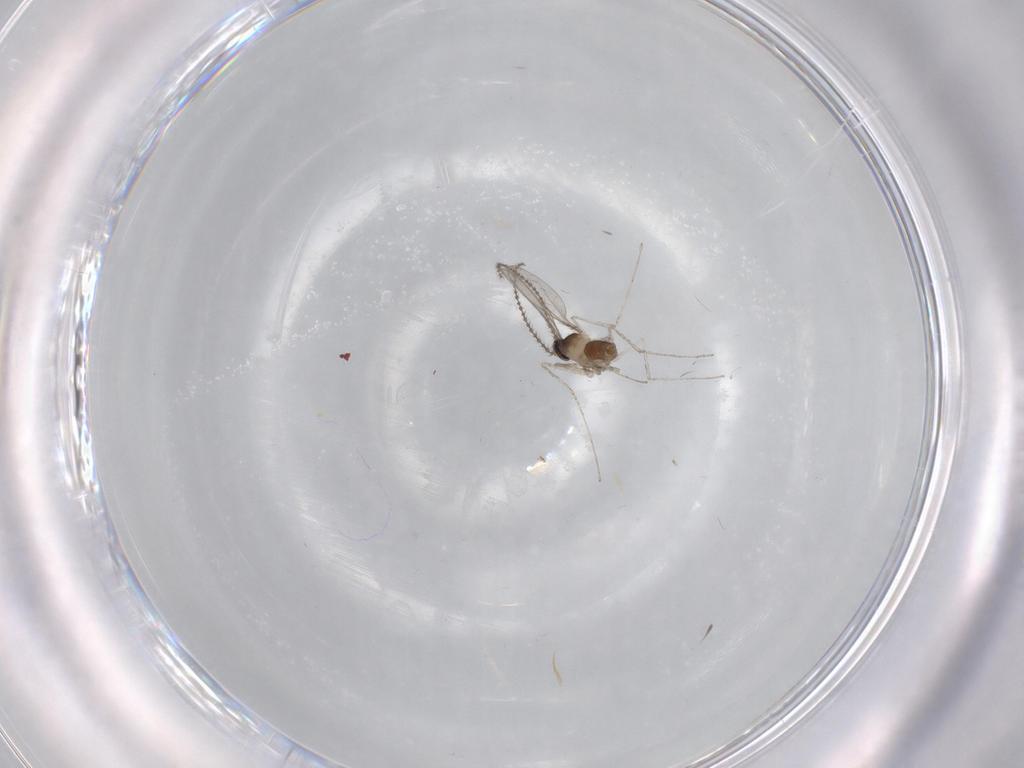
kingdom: Animalia
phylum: Arthropoda
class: Insecta
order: Diptera
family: Chironomidae
